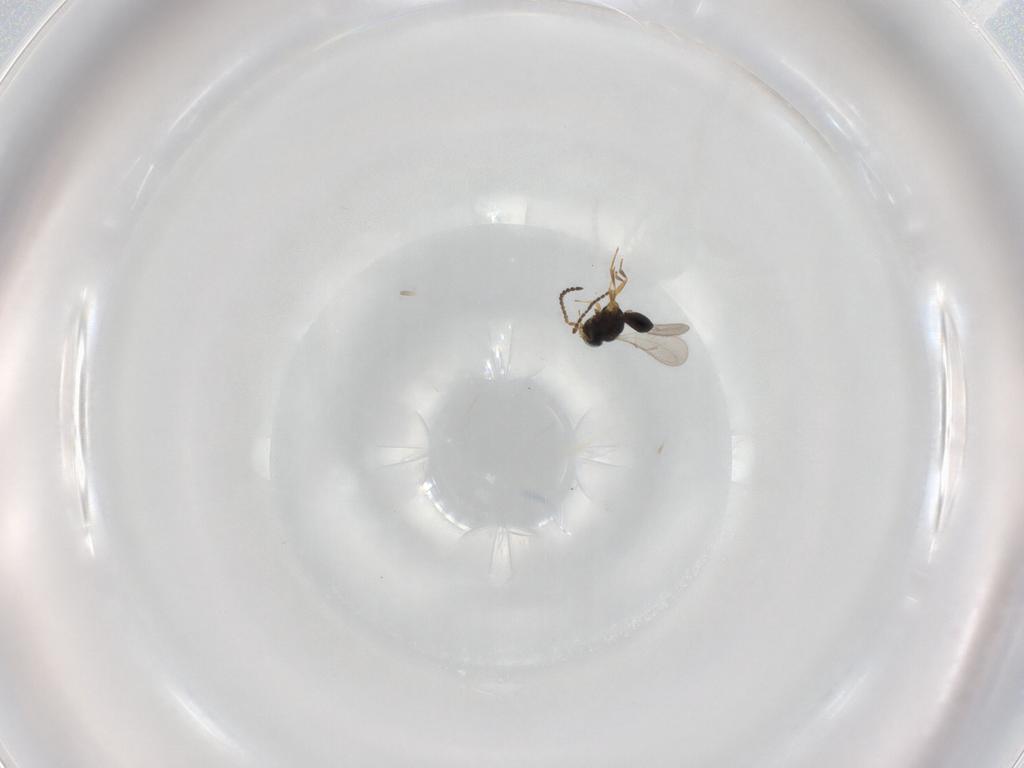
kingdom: Animalia
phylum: Arthropoda
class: Insecta
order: Hymenoptera
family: Scelionidae
